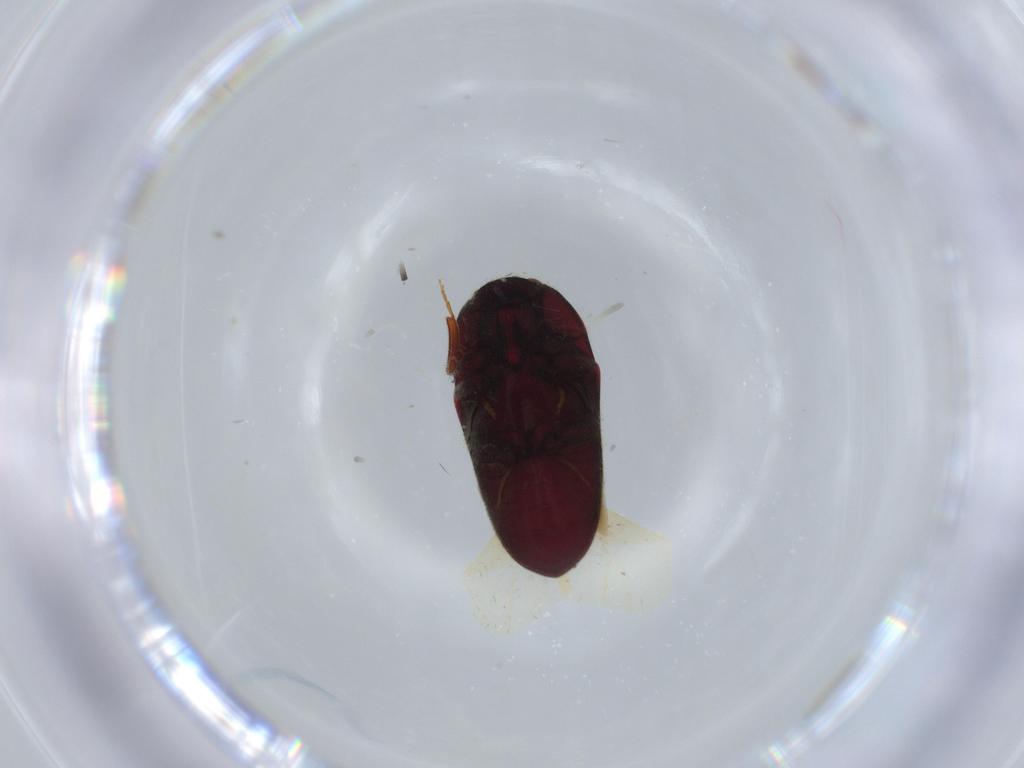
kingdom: Animalia
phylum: Arthropoda
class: Insecta
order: Coleoptera
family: Throscidae
